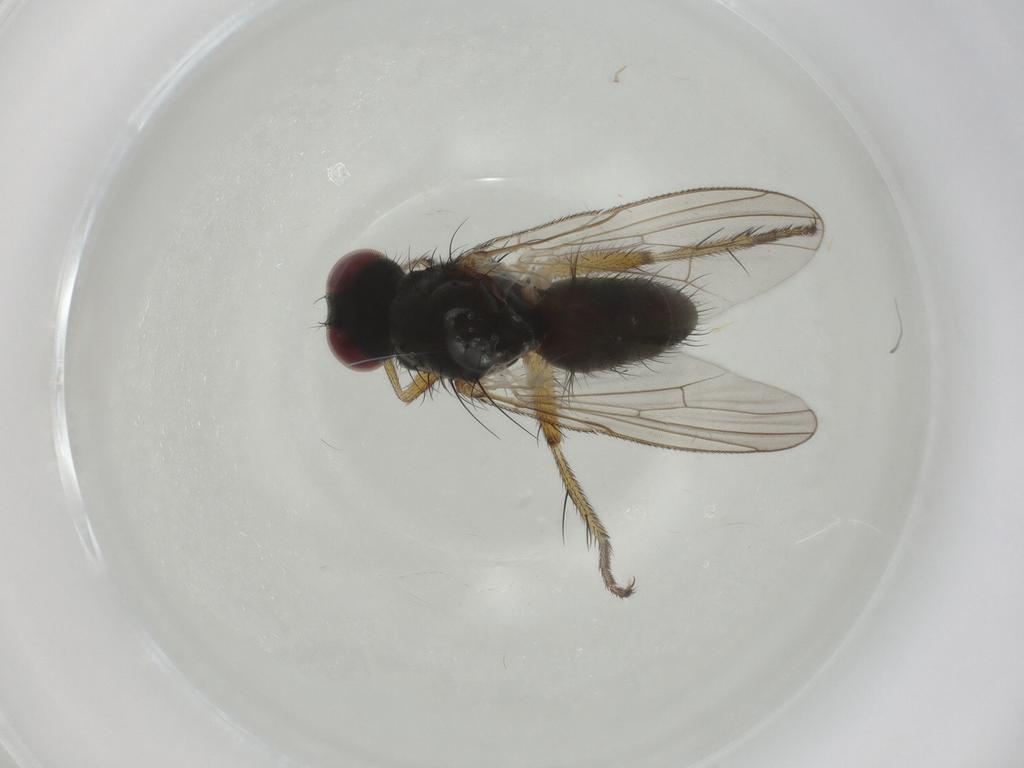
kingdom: Animalia
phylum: Arthropoda
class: Insecta
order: Diptera
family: Muscidae
